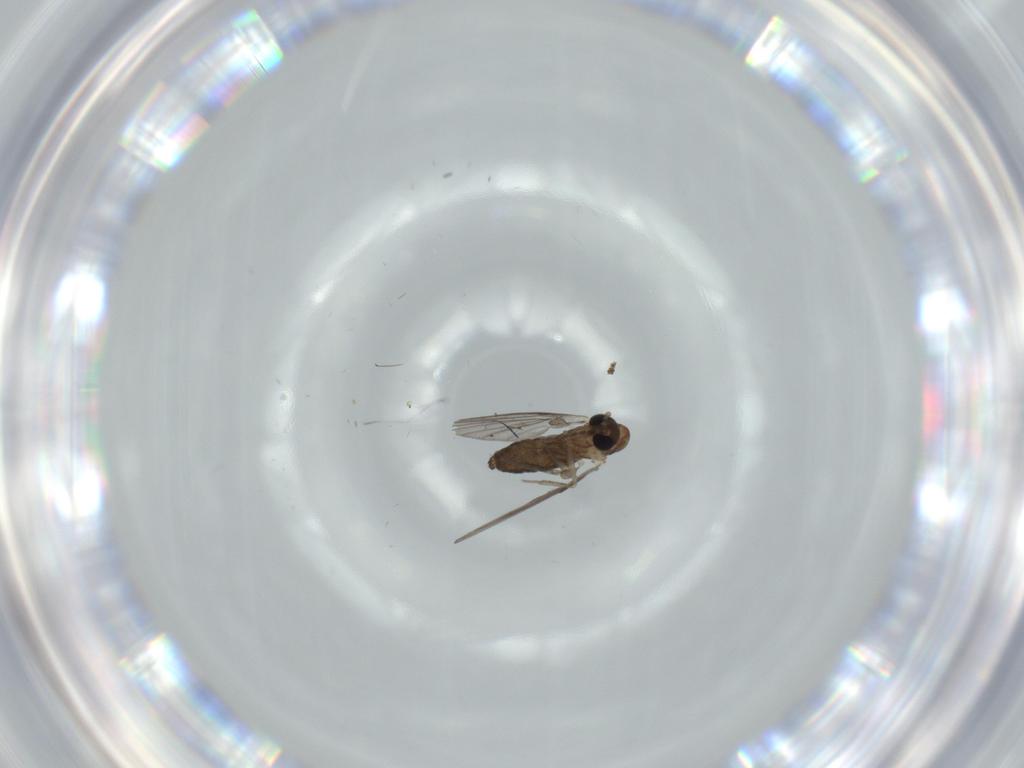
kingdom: Animalia
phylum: Arthropoda
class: Insecta
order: Diptera
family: Psychodidae
